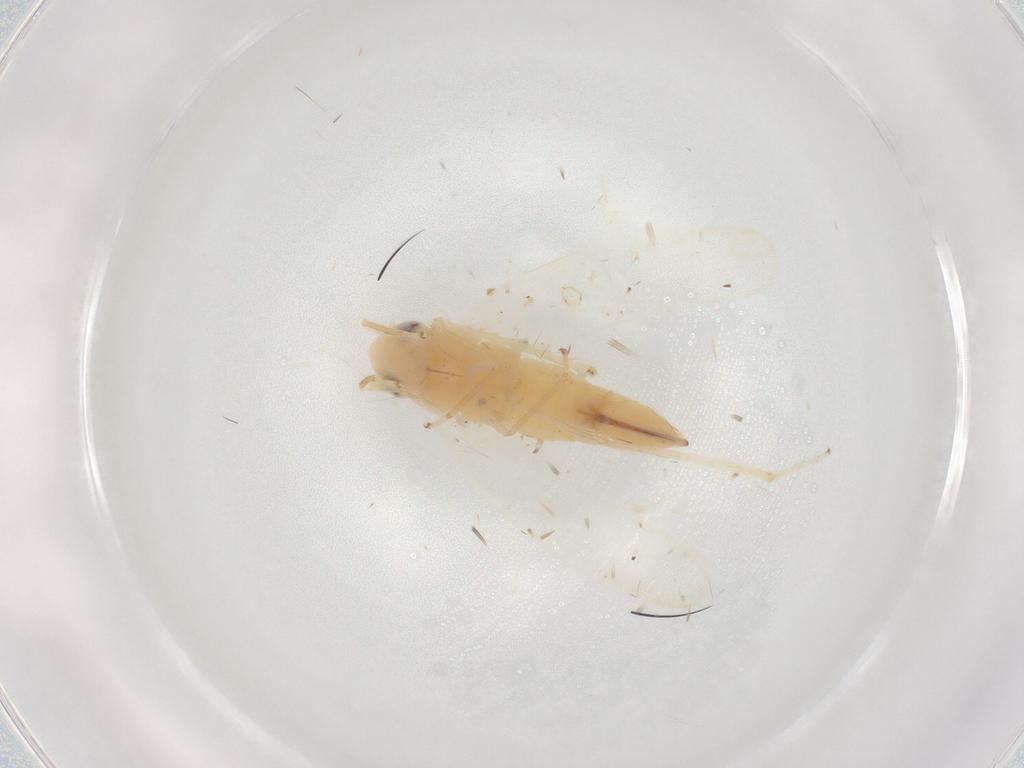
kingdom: Animalia
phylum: Arthropoda
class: Insecta
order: Hemiptera
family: Cicadellidae
